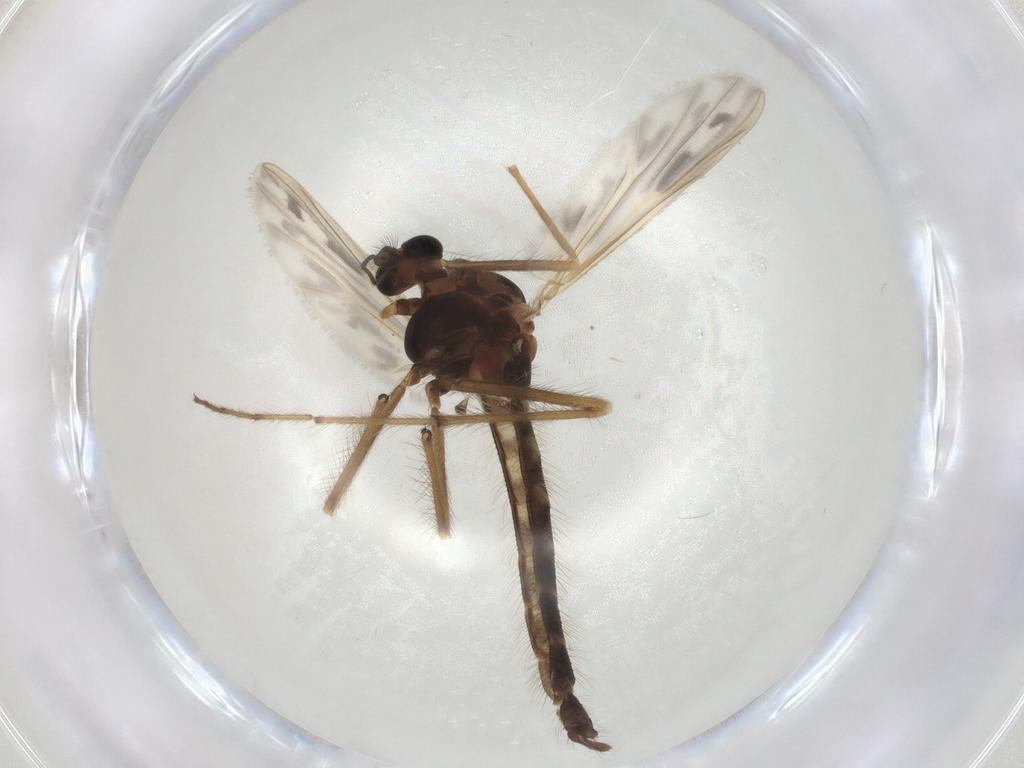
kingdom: Animalia
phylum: Arthropoda
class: Insecta
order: Diptera
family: Chironomidae
